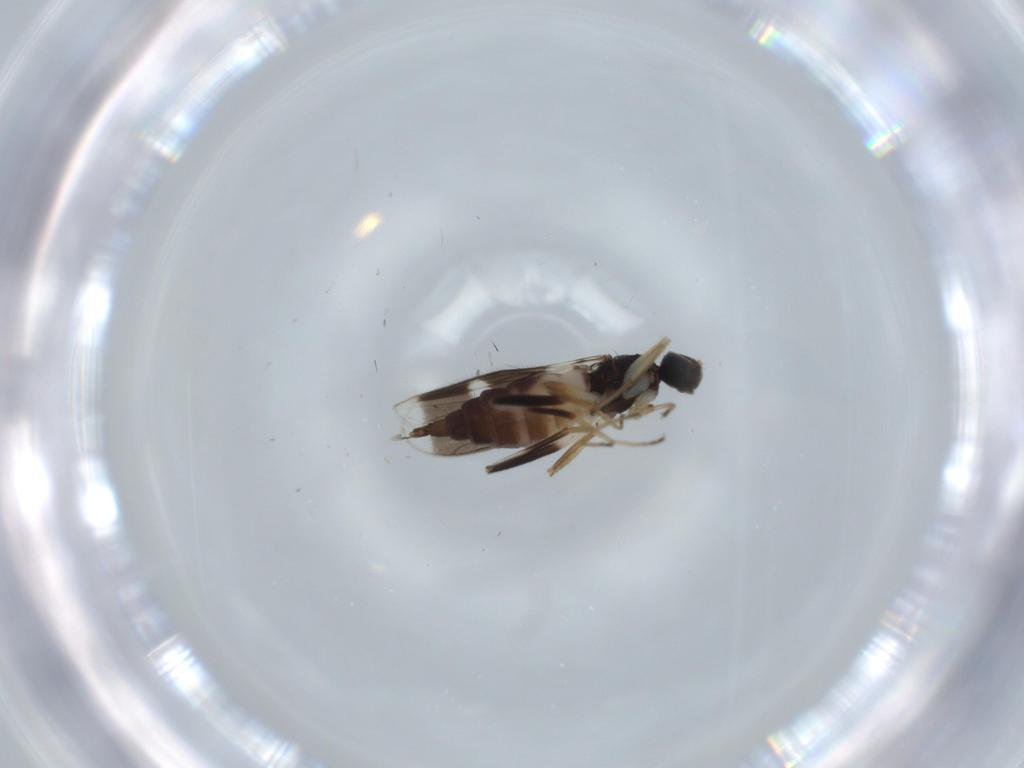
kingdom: Animalia
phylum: Arthropoda
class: Insecta
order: Diptera
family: Hybotidae
